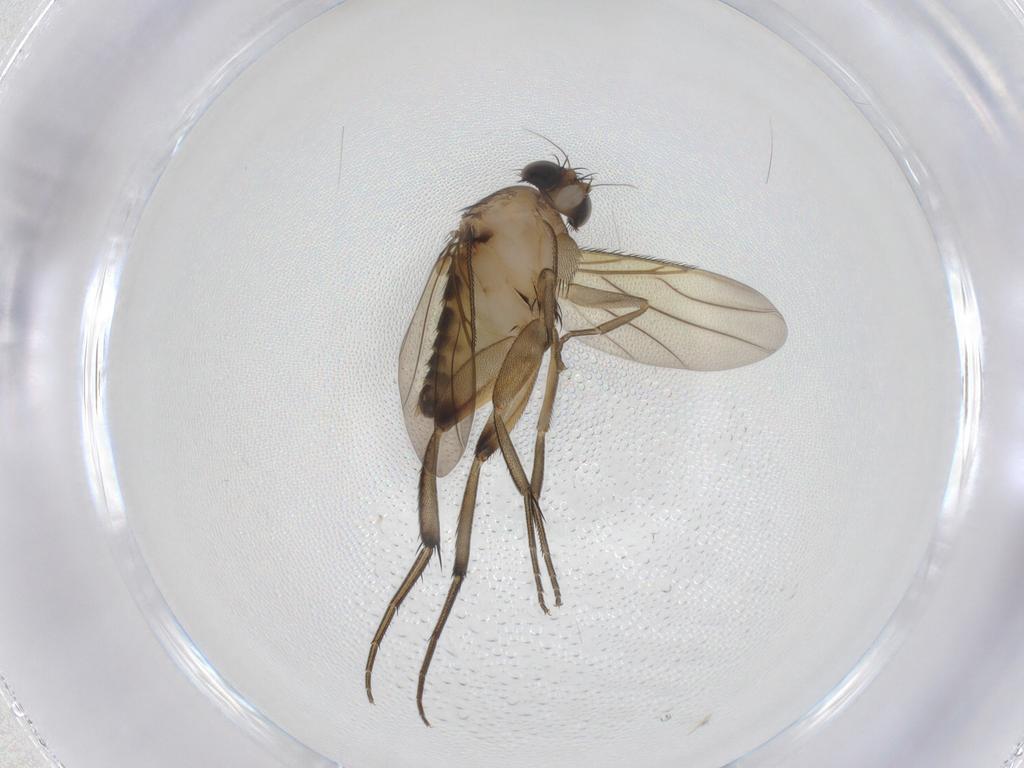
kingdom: Animalia
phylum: Arthropoda
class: Insecta
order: Diptera
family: Phoridae
